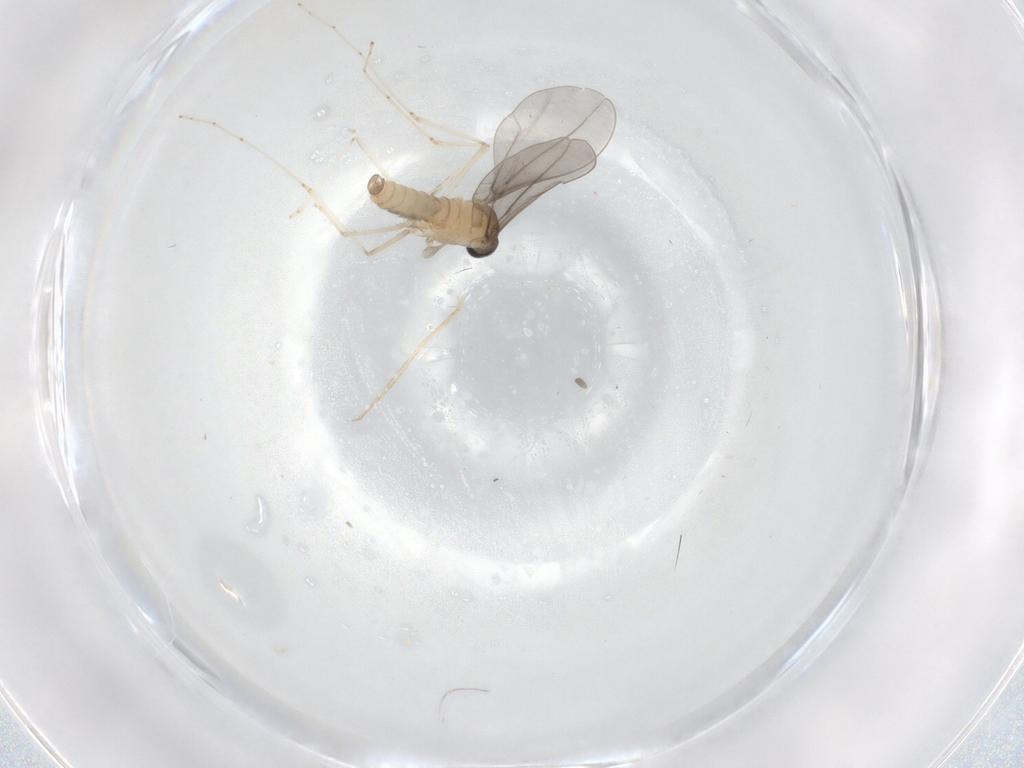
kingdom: Animalia
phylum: Arthropoda
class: Insecta
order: Diptera
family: Cecidomyiidae
